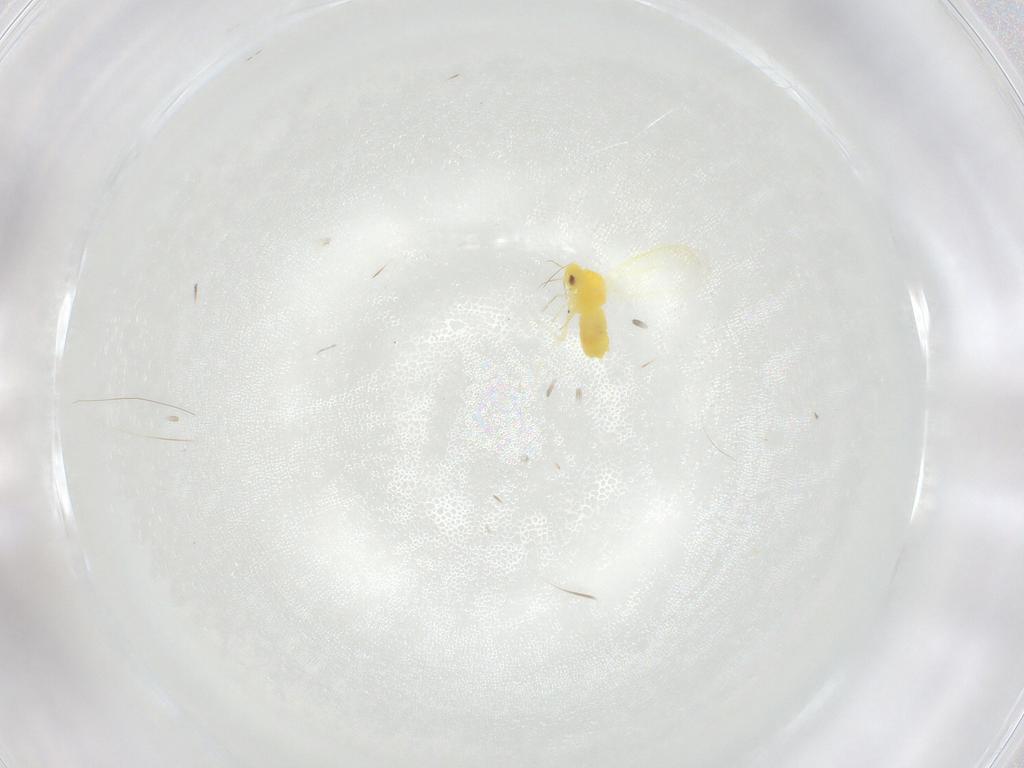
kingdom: Animalia
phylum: Arthropoda
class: Insecta
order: Hemiptera
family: Aleyrodidae
